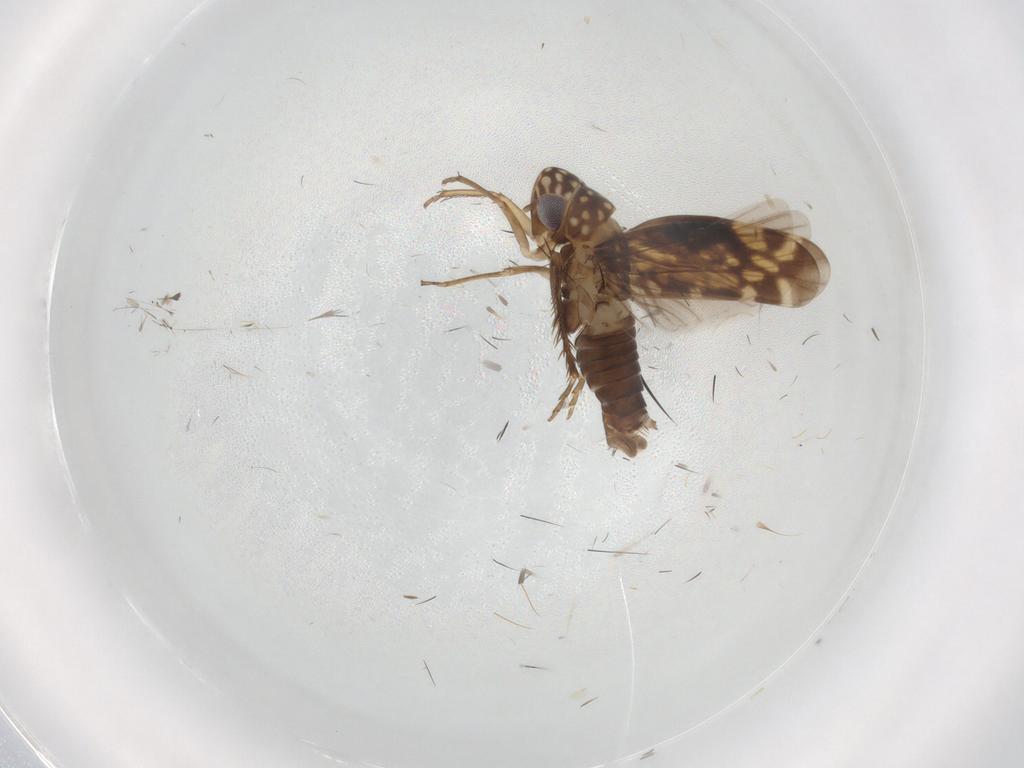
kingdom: Animalia
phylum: Arthropoda
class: Insecta
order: Hemiptera
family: Cicadellidae
